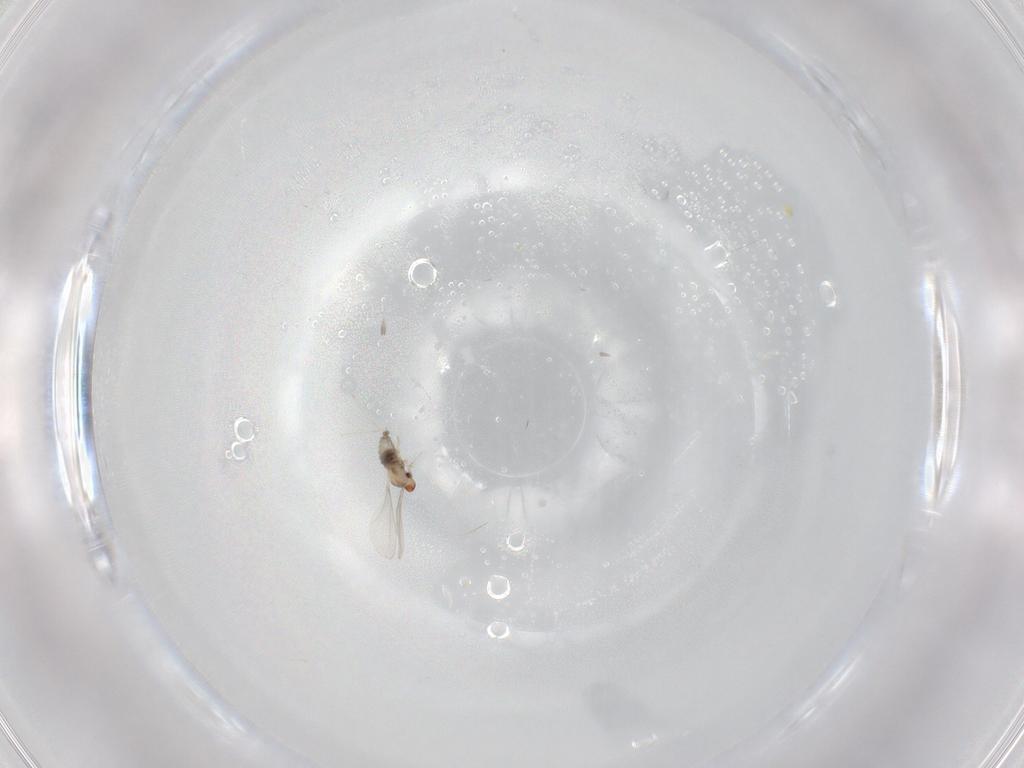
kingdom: Animalia
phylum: Arthropoda
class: Insecta
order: Diptera
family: Cecidomyiidae
